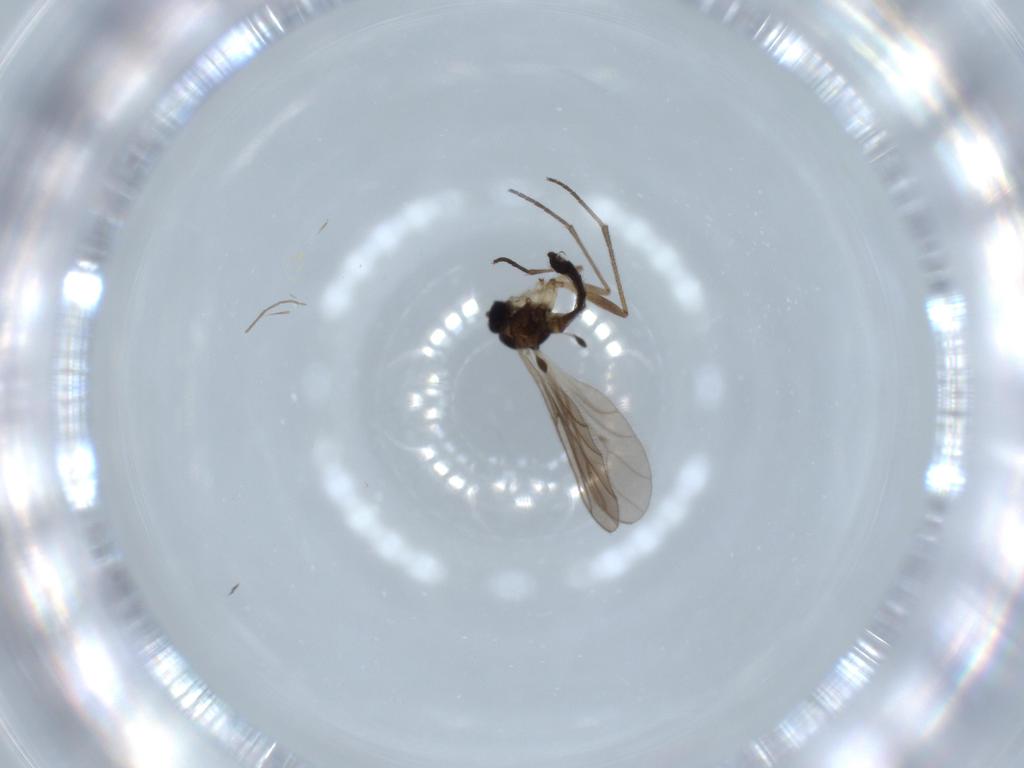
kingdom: Animalia
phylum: Arthropoda
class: Insecta
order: Diptera
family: Sciaridae
